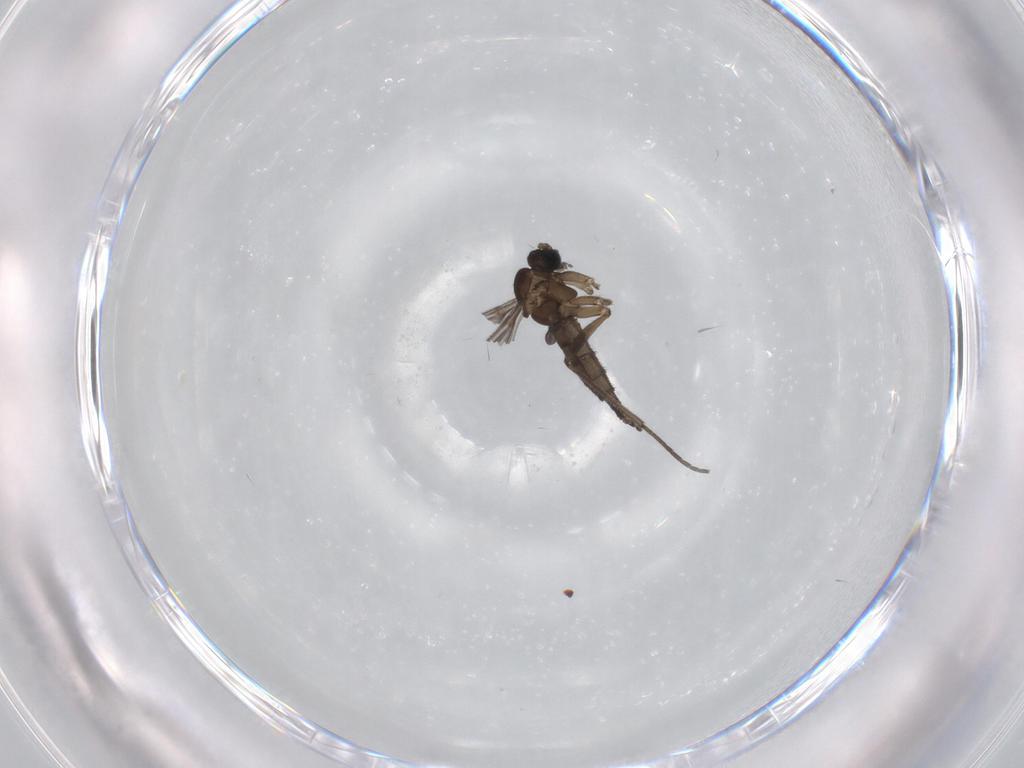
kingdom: Animalia
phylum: Arthropoda
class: Insecta
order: Diptera
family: Sciaridae
